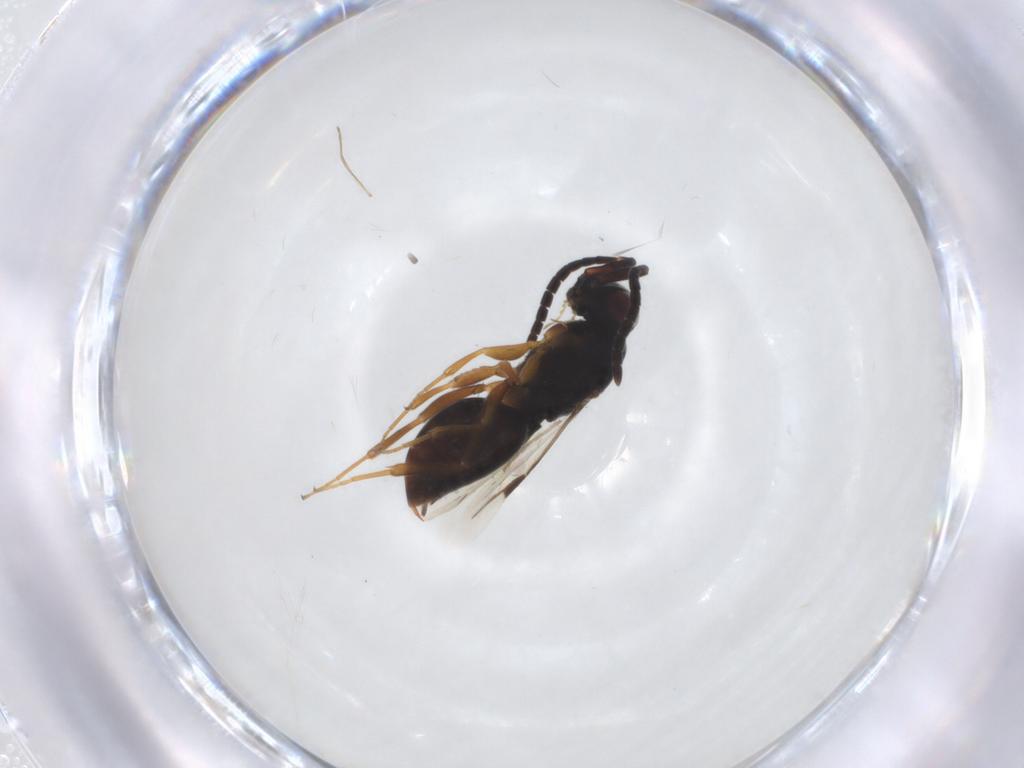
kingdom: Animalia
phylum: Arthropoda
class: Insecta
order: Hymenoptera
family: Megaspilidae
